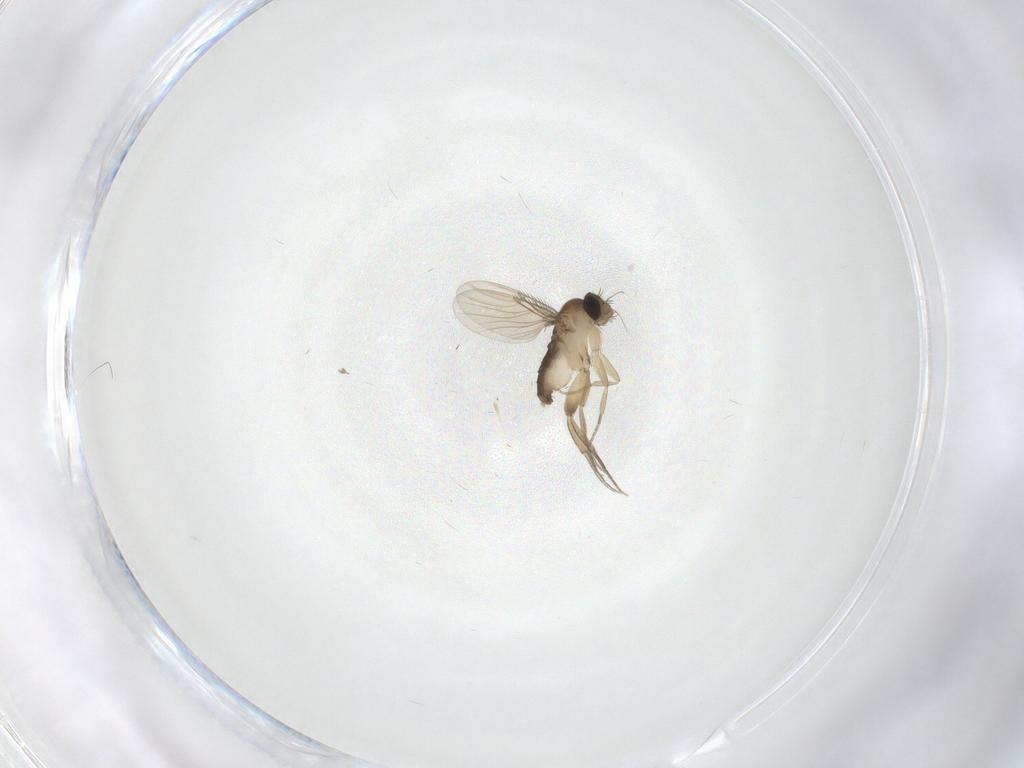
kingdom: Animalia
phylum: Arthropoda
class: Insecta
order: Diptera
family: Phoridae
